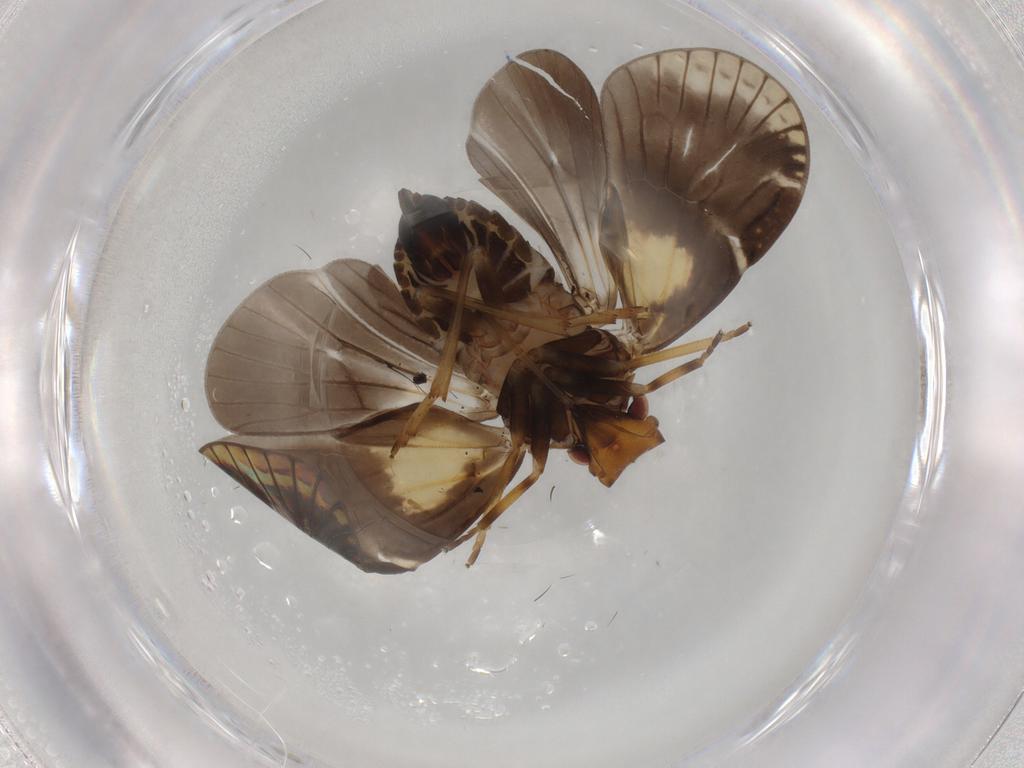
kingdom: Animalia
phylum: Arthropoda
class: Insecta
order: Hemiptera
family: Cixiidae
